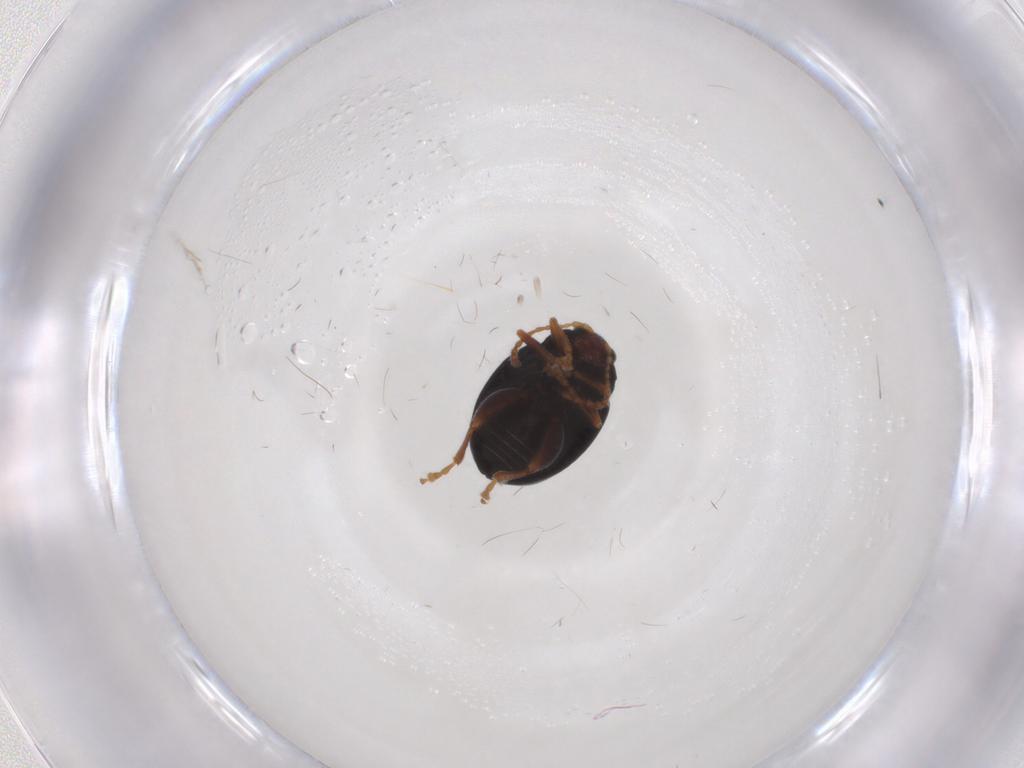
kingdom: Animalia
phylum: Arthropoda
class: Insecta
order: Coleoptera
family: Chrysomelidae
